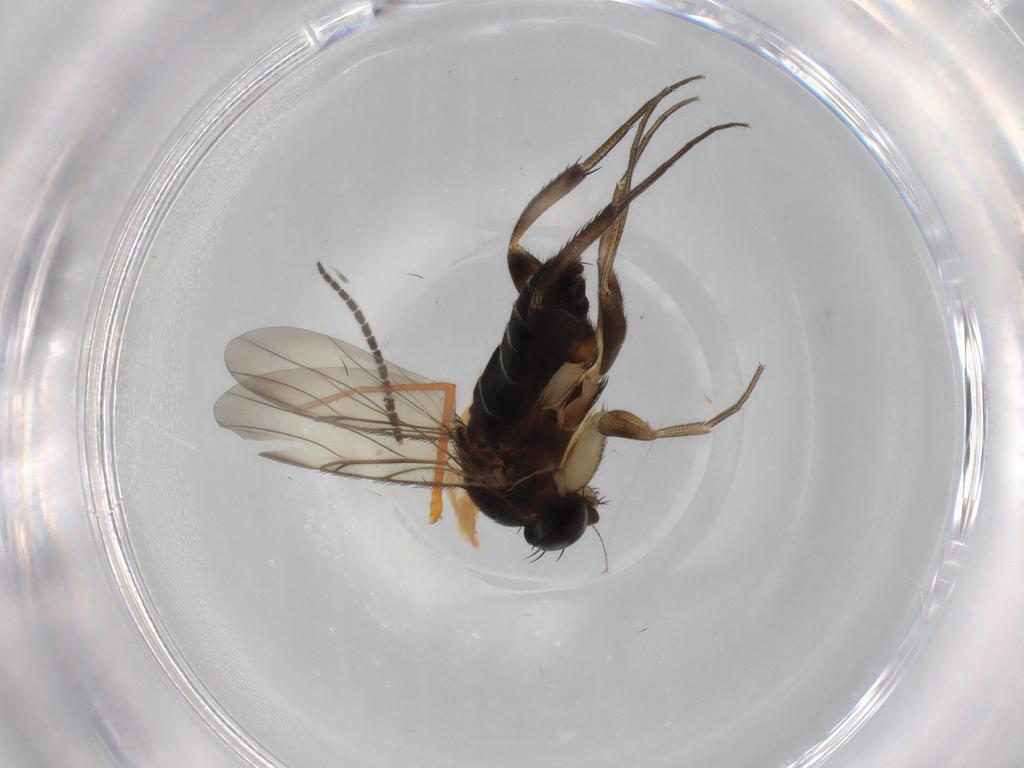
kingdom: Animalia
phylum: Arthropoda
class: Insecta
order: Diptera
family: Sciaridae
